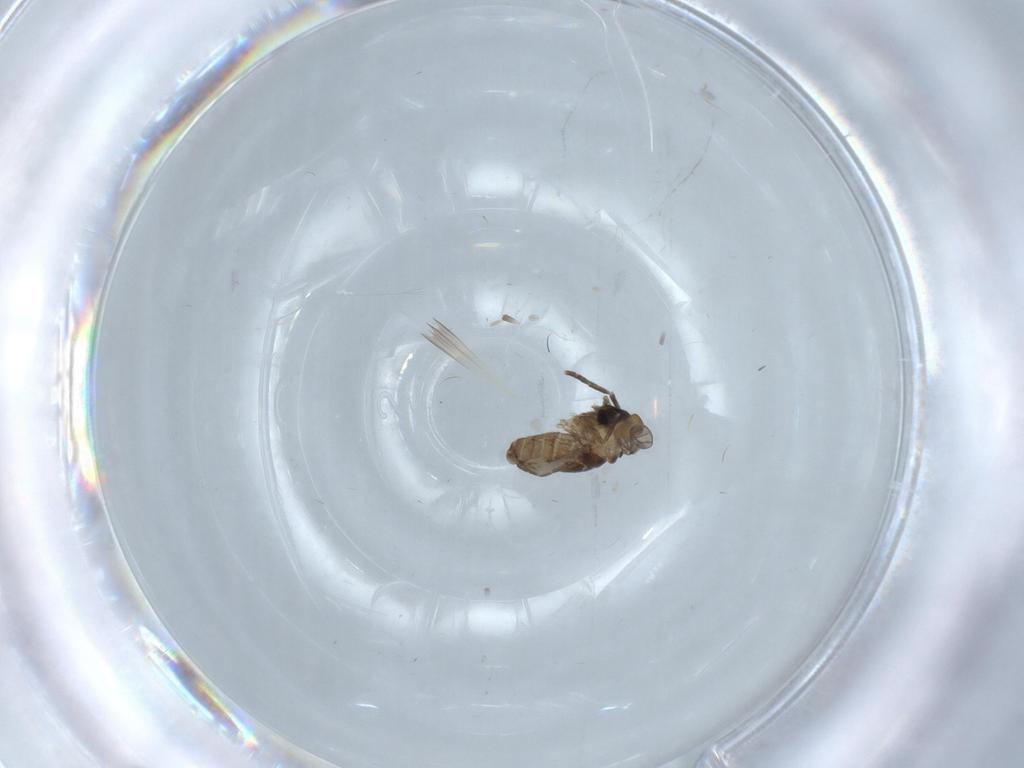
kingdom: Animalia
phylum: Arthropoda
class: Insecta
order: Diptera
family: Psychodidae
